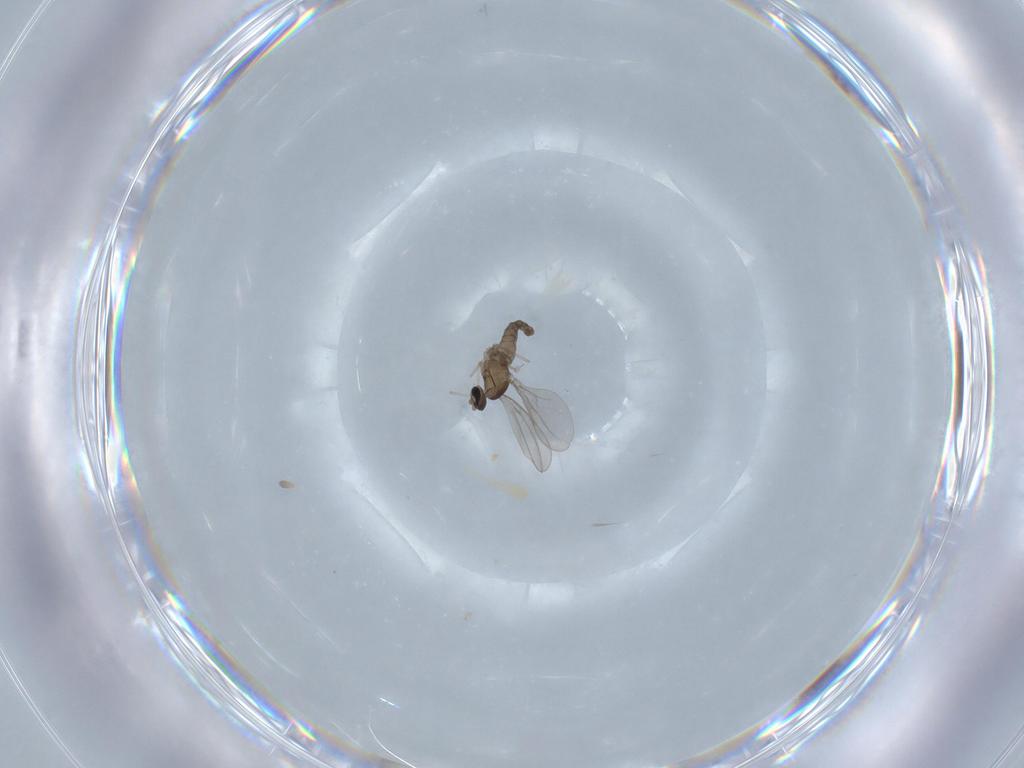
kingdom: Animalia
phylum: Arthropoda
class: Insecta
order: Diptera
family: Cecidomyiidae
